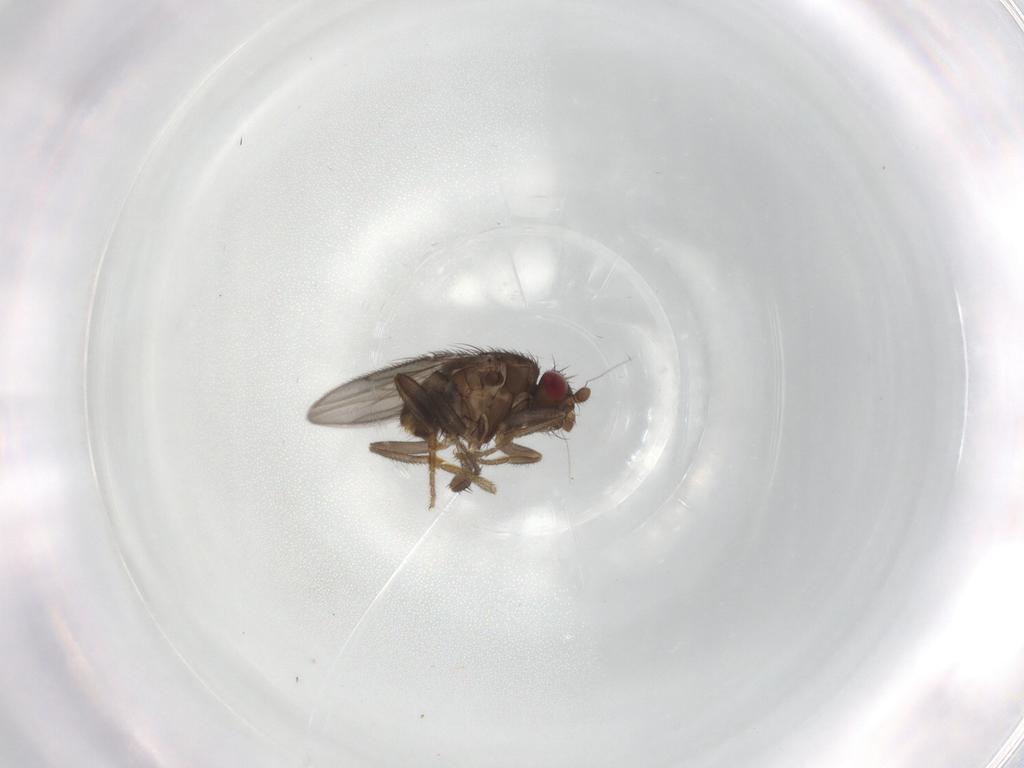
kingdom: Animalia
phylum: Arthropoda
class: Insecta
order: Diptera
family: Sphaeroceridae
